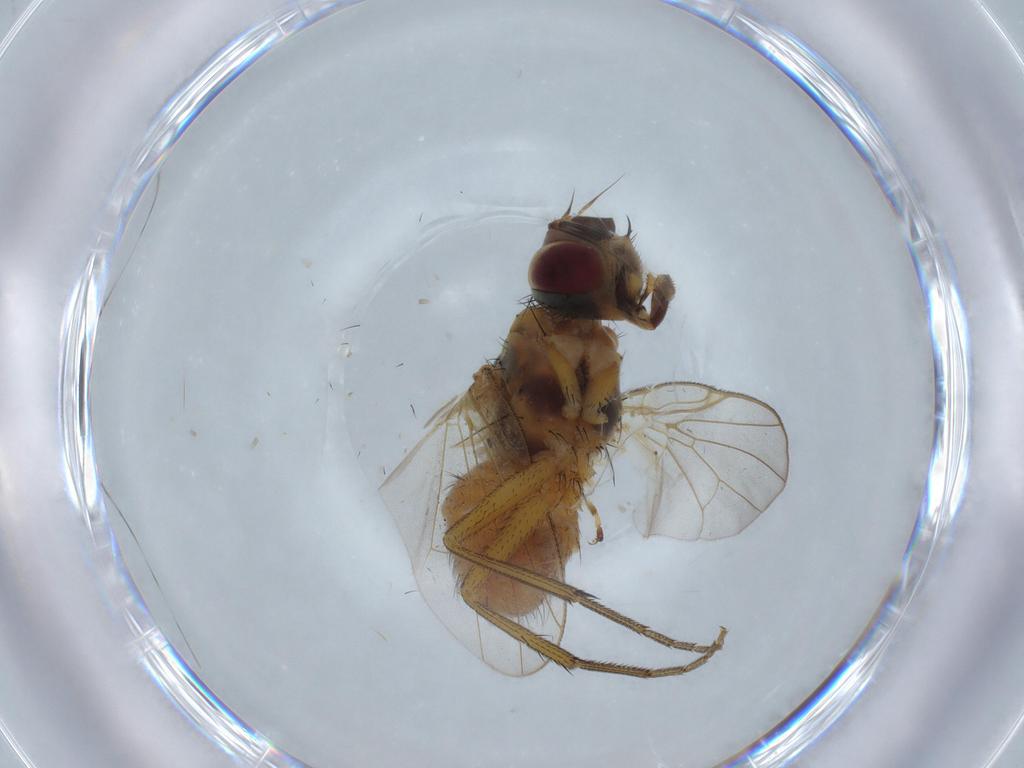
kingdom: Animalia
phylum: Arthropoda
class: Insecta
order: Diptera
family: Muscidae
